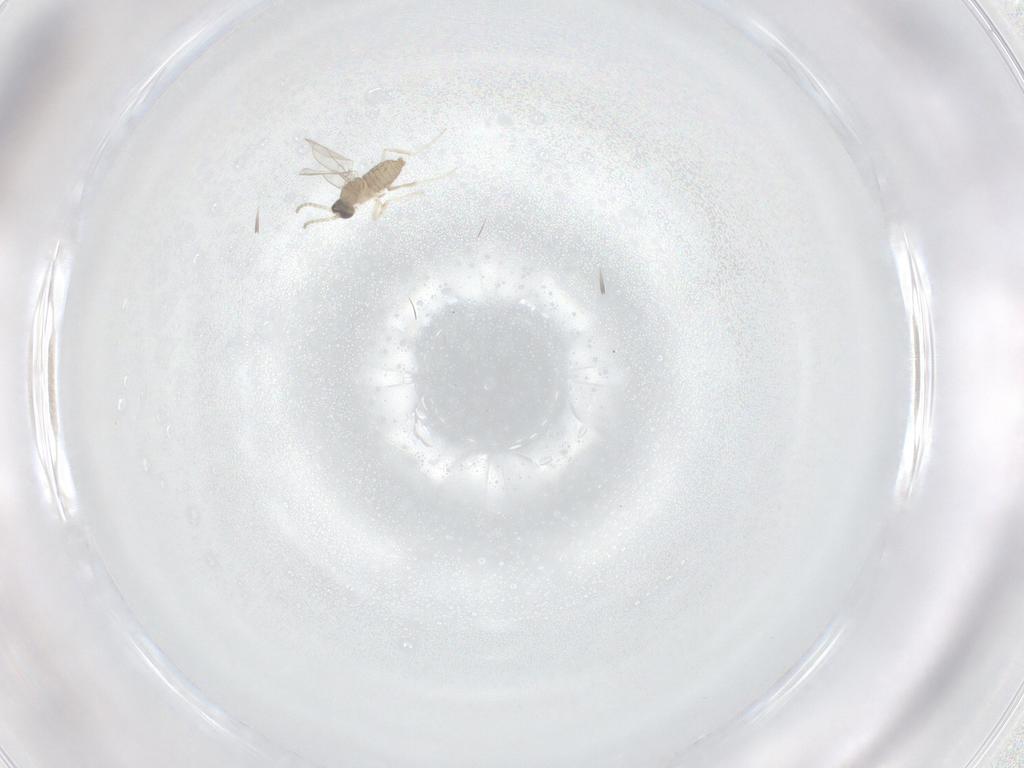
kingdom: Animalia
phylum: Arthropoda
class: Insecta
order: Diptera
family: Cecidomyiidae
